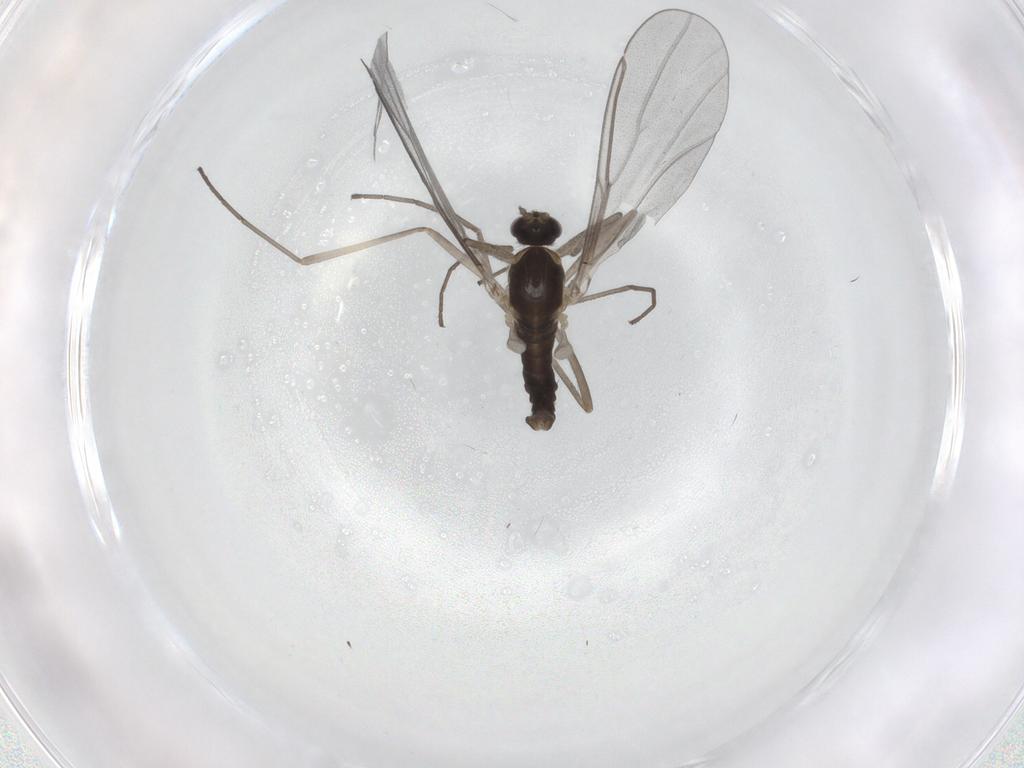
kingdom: Animalia
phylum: Arthropoda
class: Insecta
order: Diptera
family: Cecidomyiidae
